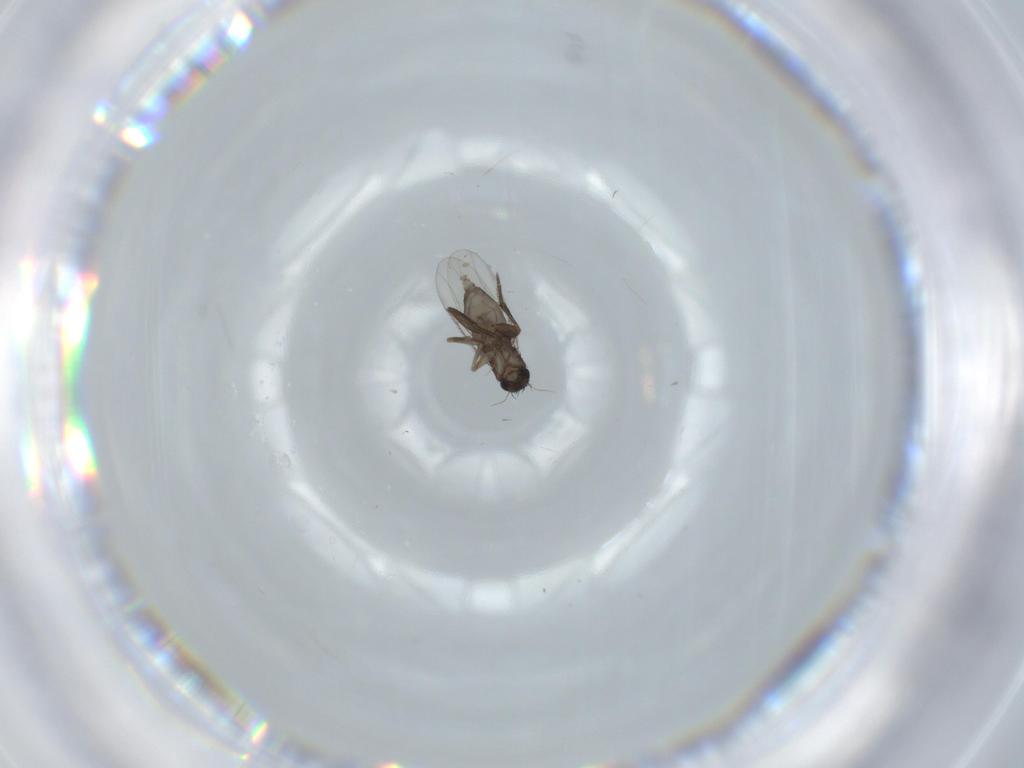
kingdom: Animalia
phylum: Arthropoda
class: Insecta
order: Diptera
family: Phoridae
